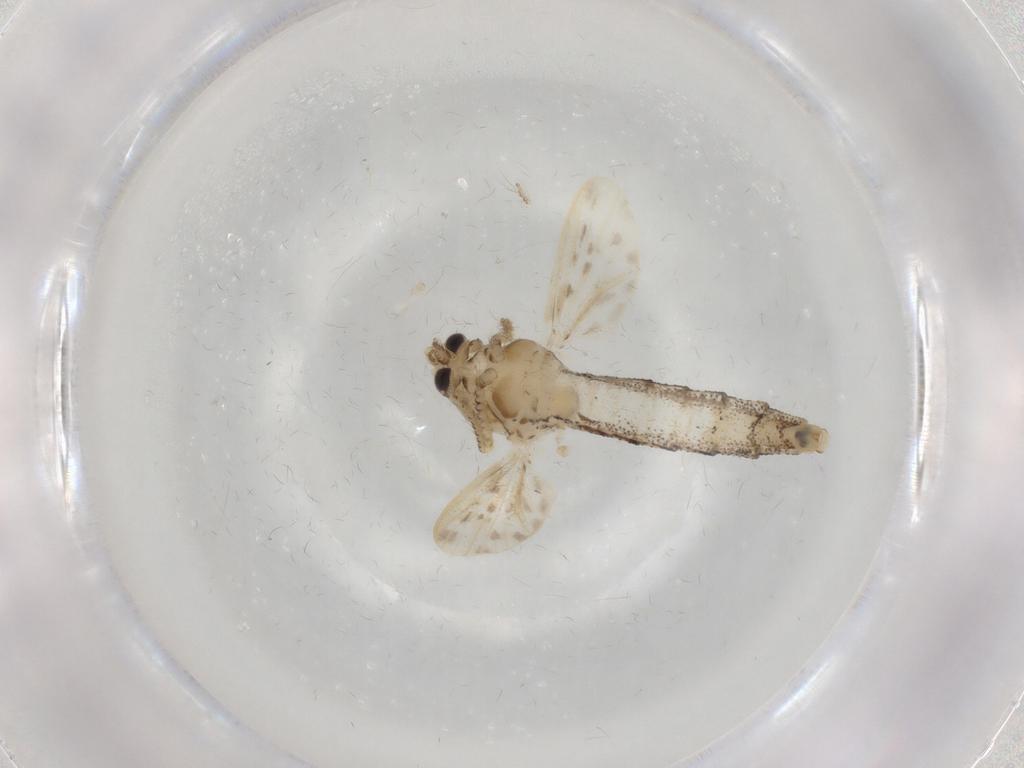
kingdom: Animalia
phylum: Arthropoda
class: Insecta
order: Diptera
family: Chaoboridae
